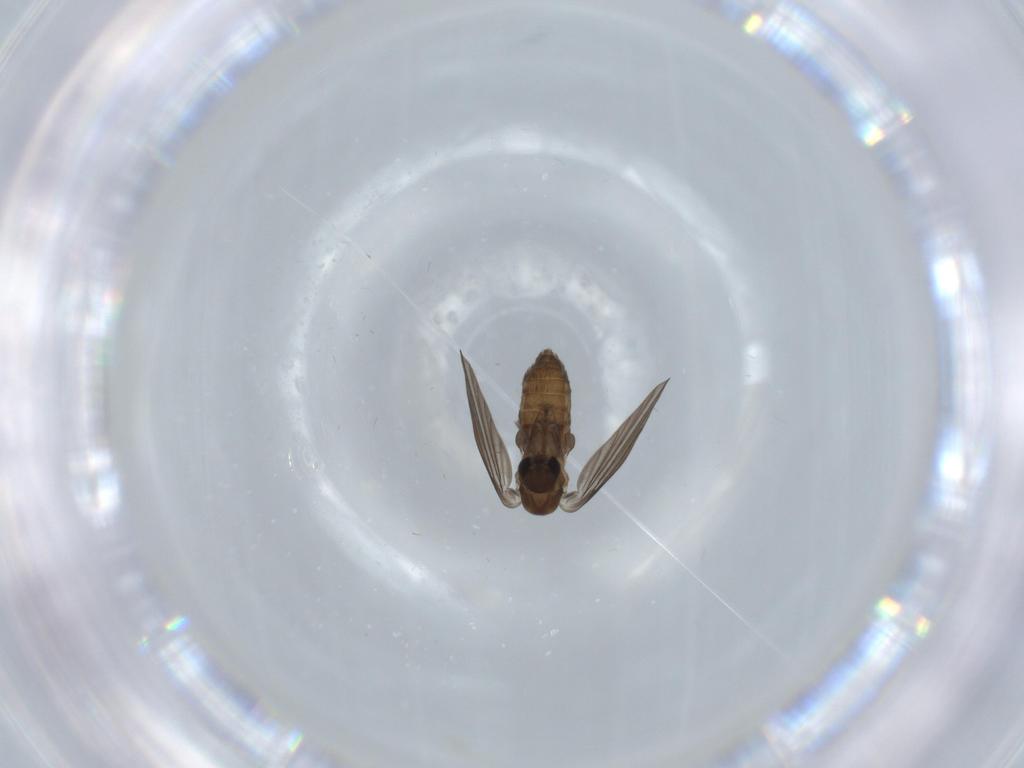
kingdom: Animalia
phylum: Arthropoda
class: Insecta
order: Diptera
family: Psychodidae
